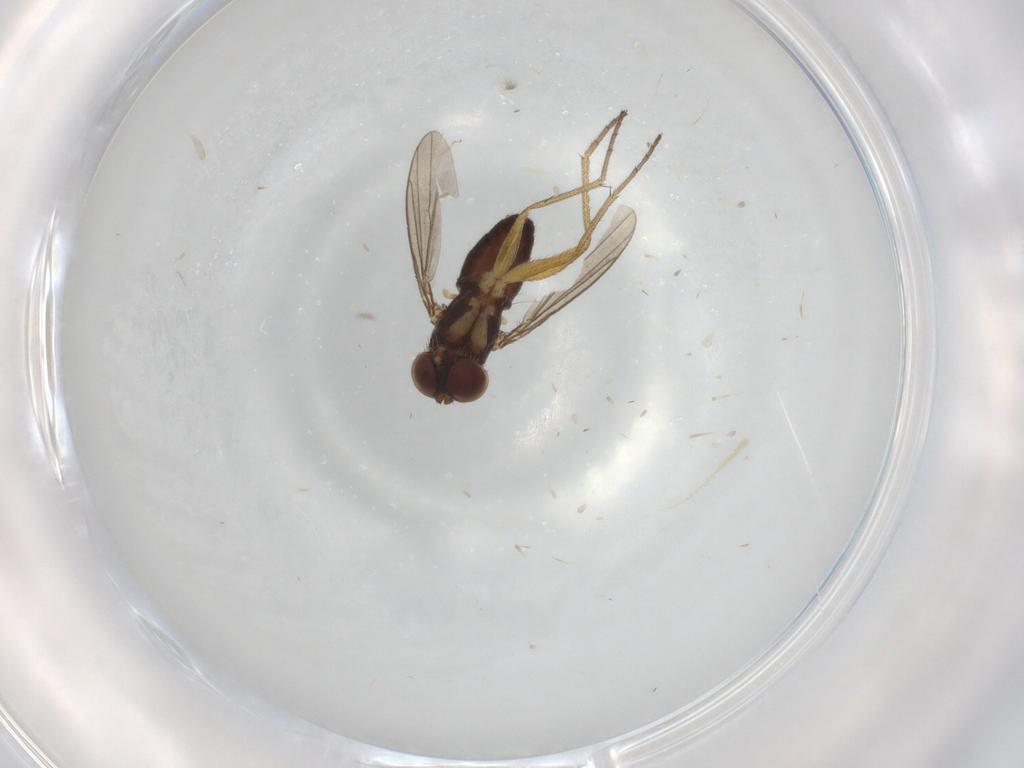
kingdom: Animalia
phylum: Arthropoda
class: Insecta
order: Diptera
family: Dolichopodidae
